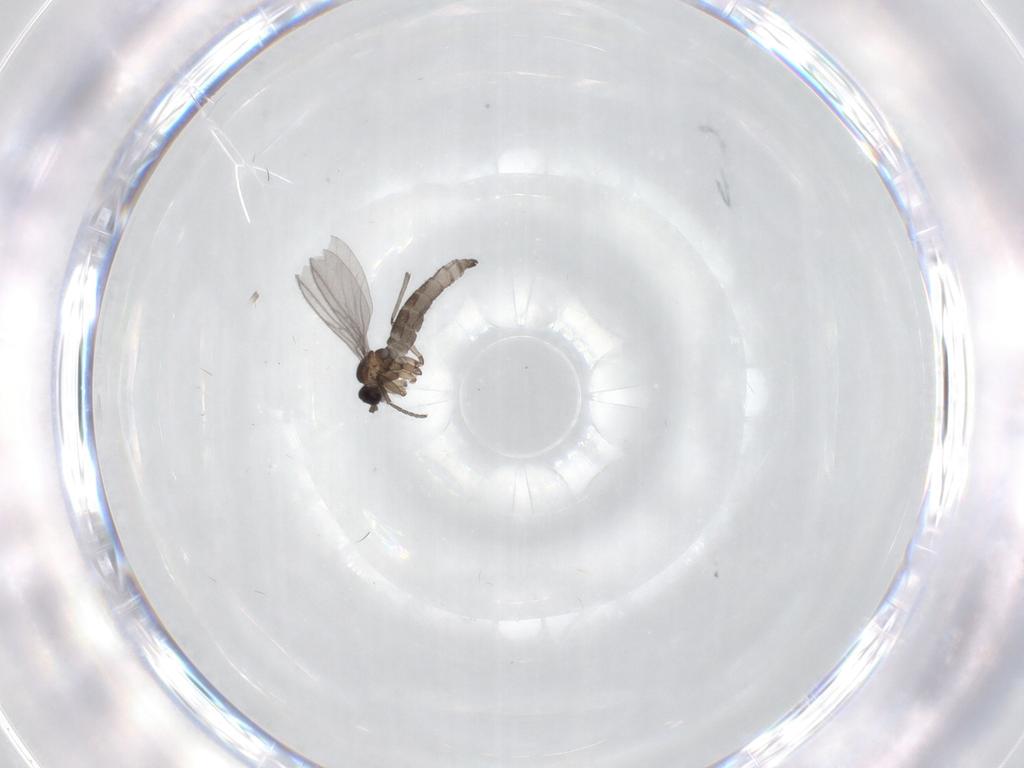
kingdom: Animalia
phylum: Arthropoda
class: Insecta
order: Diptera
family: Sciaridae
